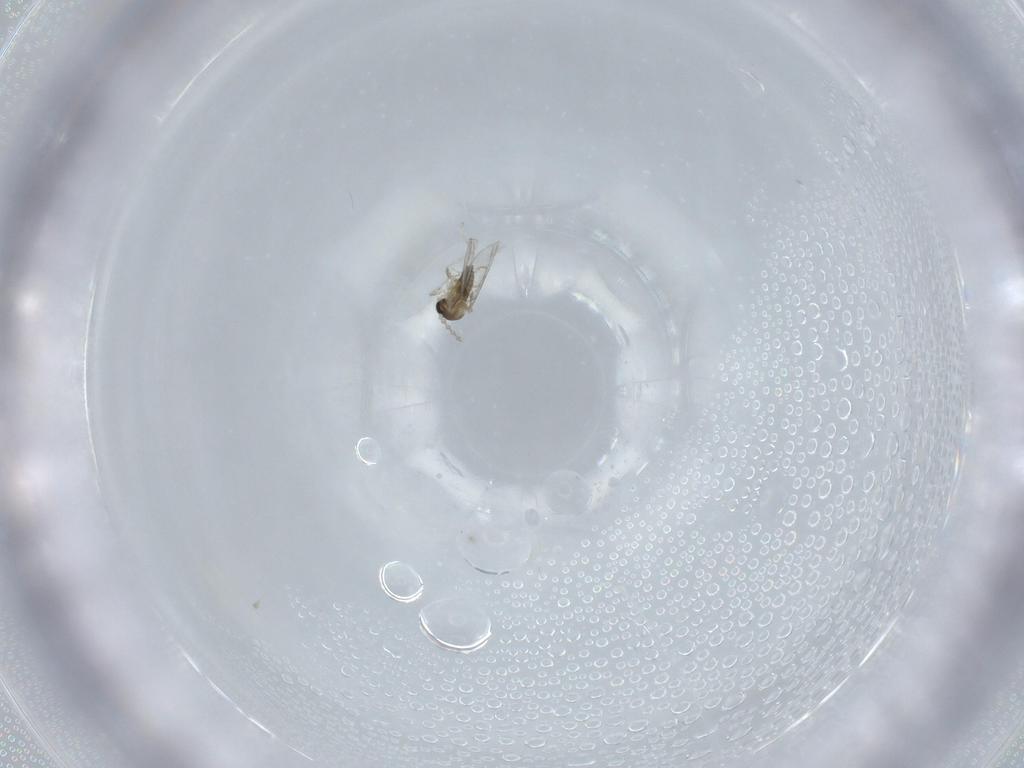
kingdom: Animalia
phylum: Arthropoda
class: Insecta
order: Diptera
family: Cecidomyiidae
